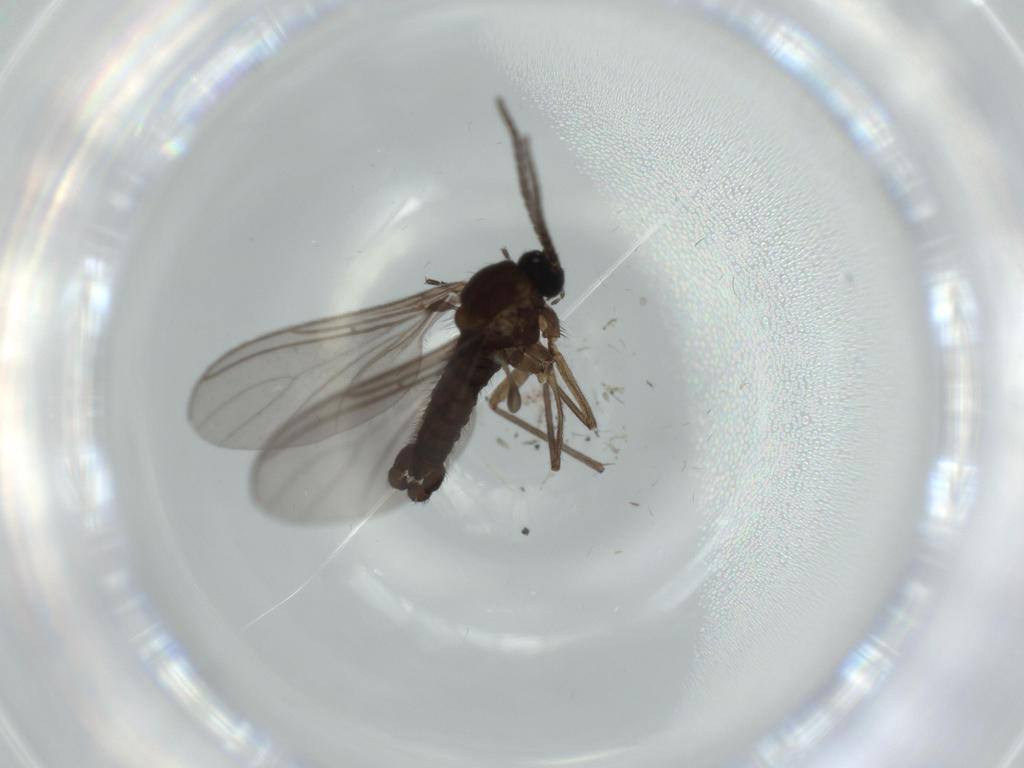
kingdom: Animalia
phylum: Arthropoda
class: Insecta
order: Diptera
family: Sciaridae
